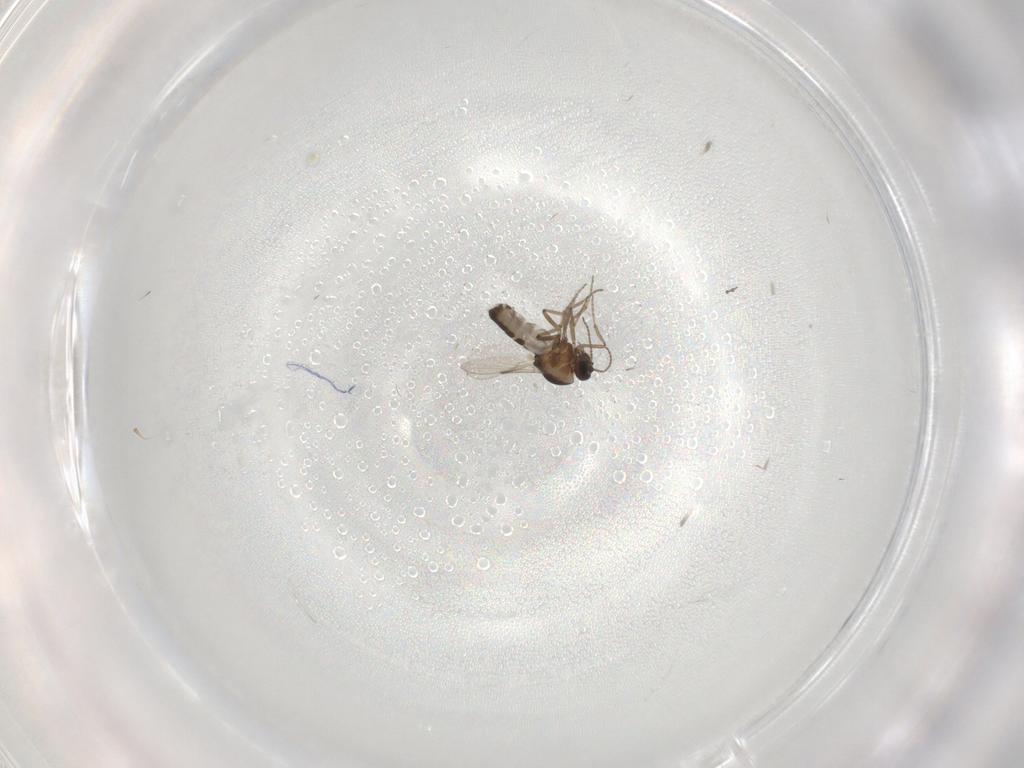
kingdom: Animalia
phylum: Arthropoda
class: Insecta
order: Diptera
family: Ceratopogonidae
